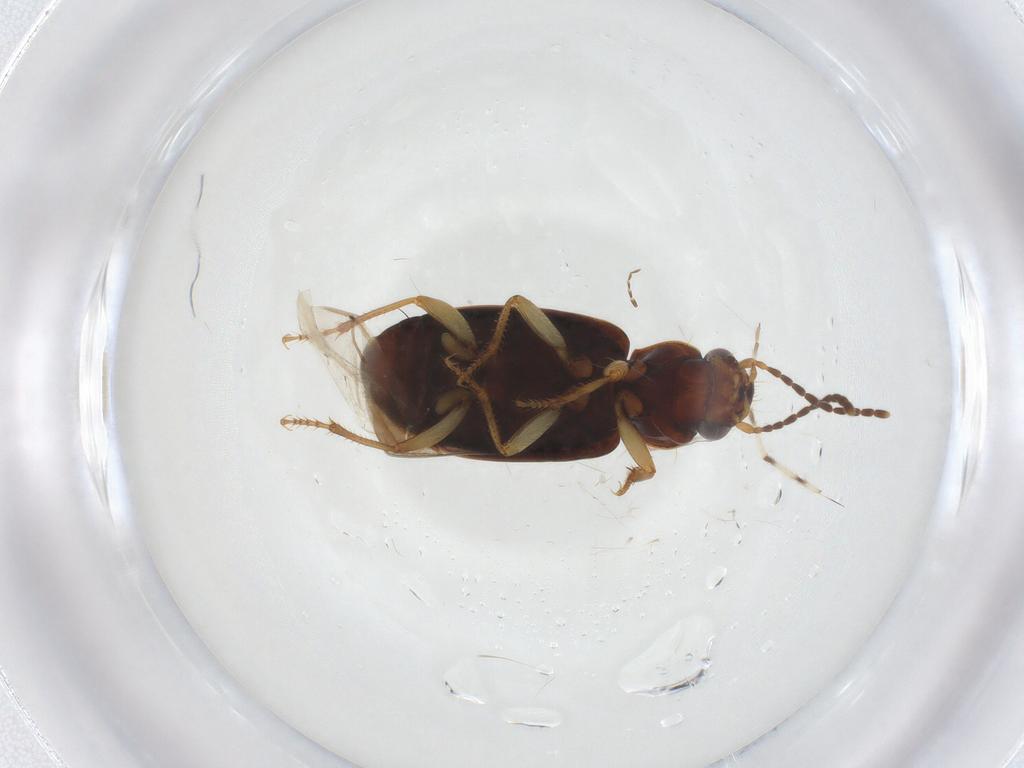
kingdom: Animalia
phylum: Arthropoda
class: Insecta
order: Coleoptera
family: Carabidae
